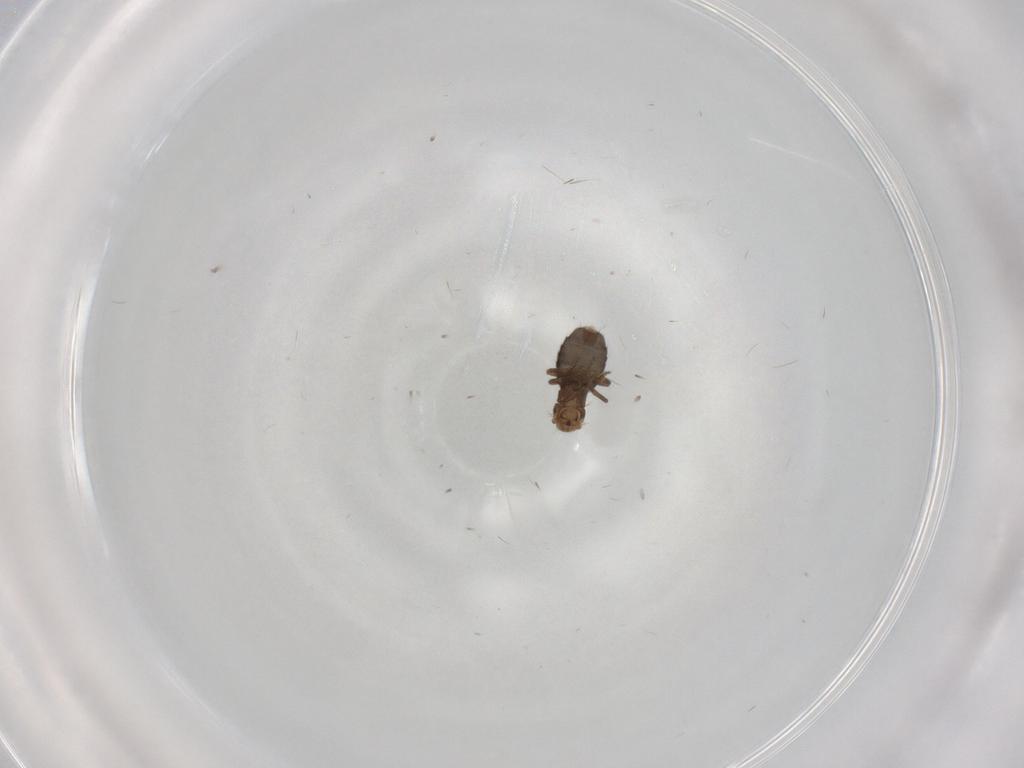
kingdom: Animalia
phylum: Arthropoda
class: Insecta
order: Diptera
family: Phoridae
